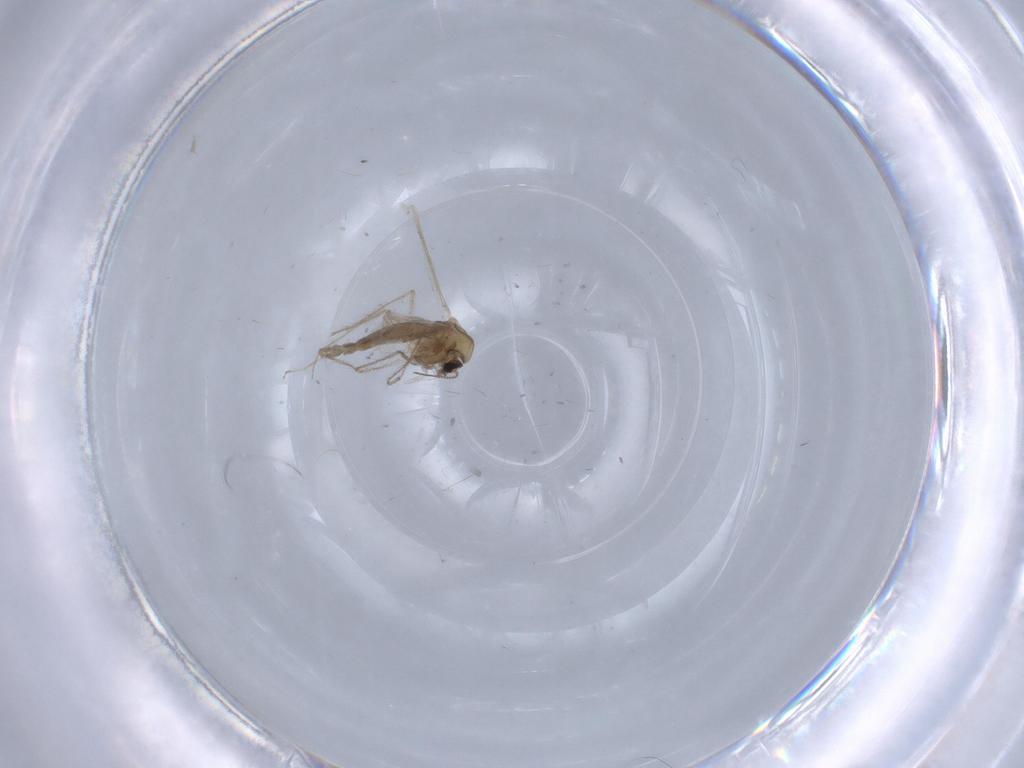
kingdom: Animalia
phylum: Arthropoda
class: Insecta
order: Diptera
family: Chironomidae
